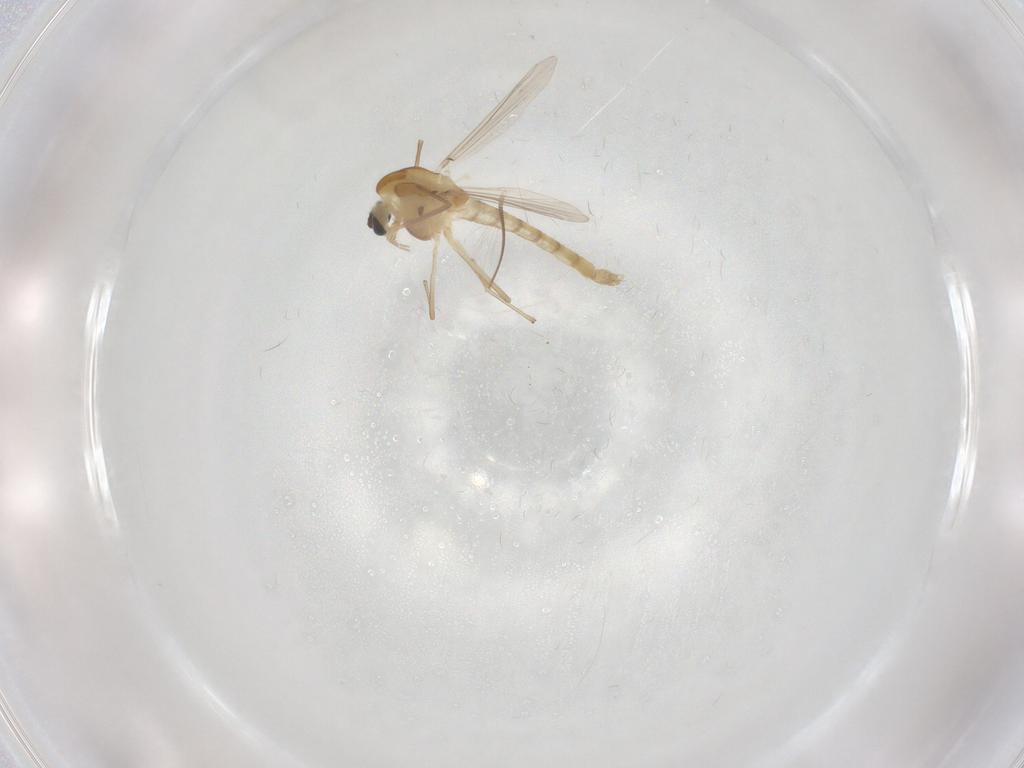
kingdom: Animalia
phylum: Arthropoda
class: Insecta
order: Diptera
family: Chironomidae
